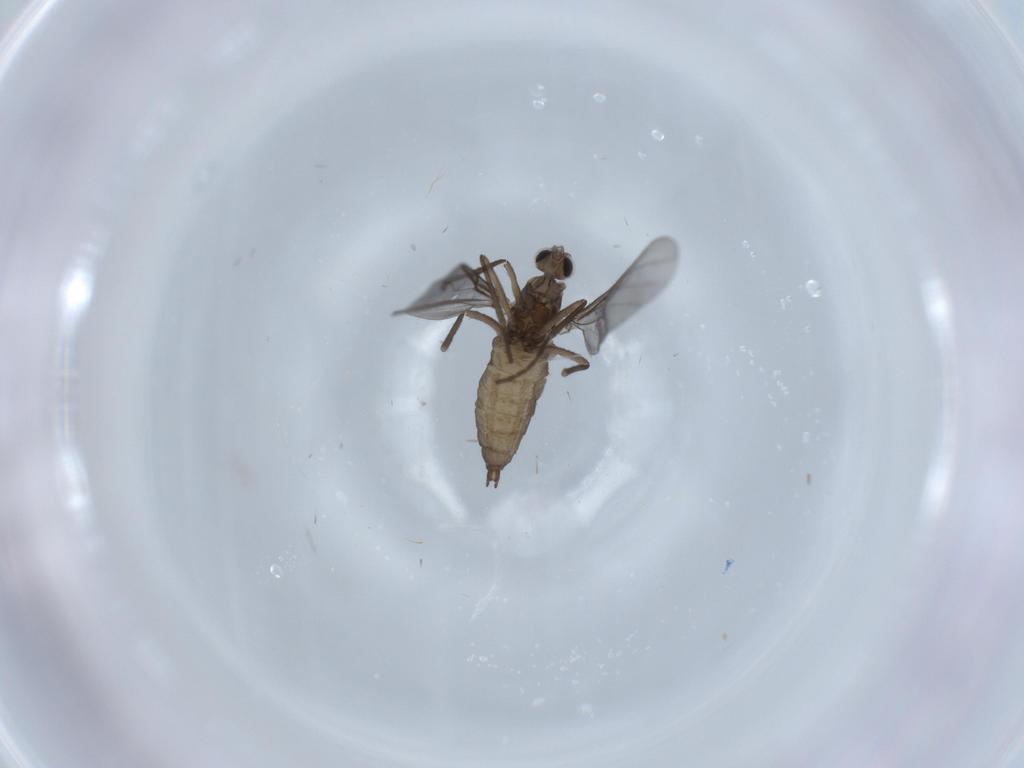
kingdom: Animalia
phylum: Arthropoda
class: Insecta
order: Diptera
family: Cecidomyiidae
